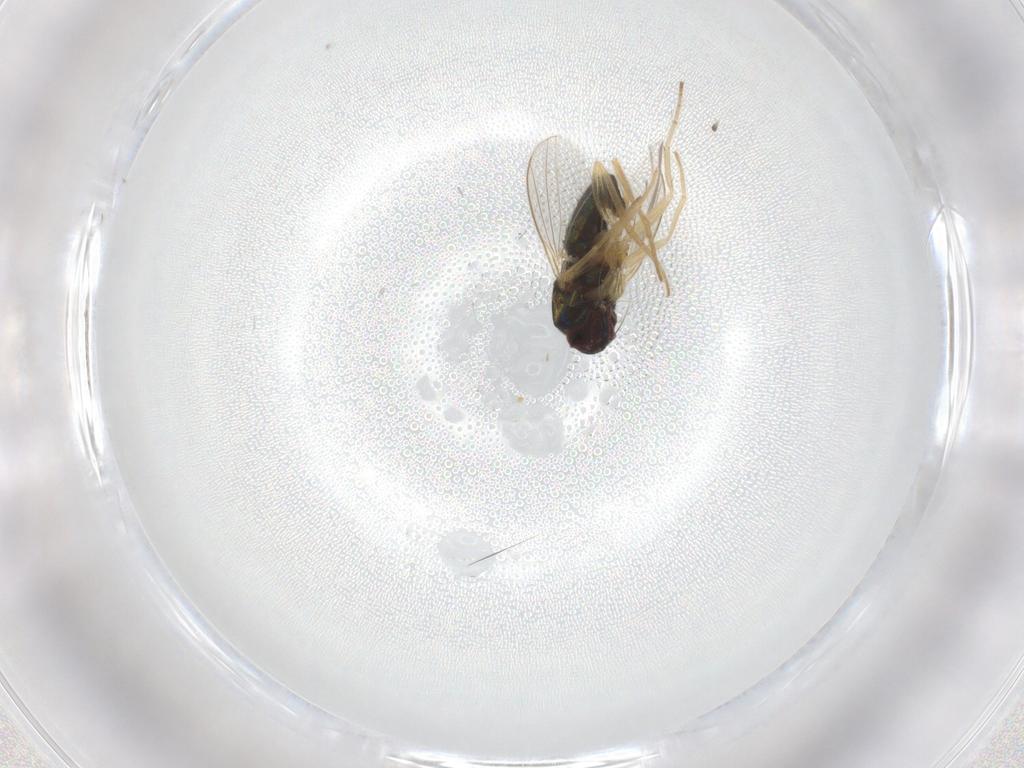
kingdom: Animalia
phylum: Arthropoda
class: Insecta
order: Diptera
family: Dolichopodidae
